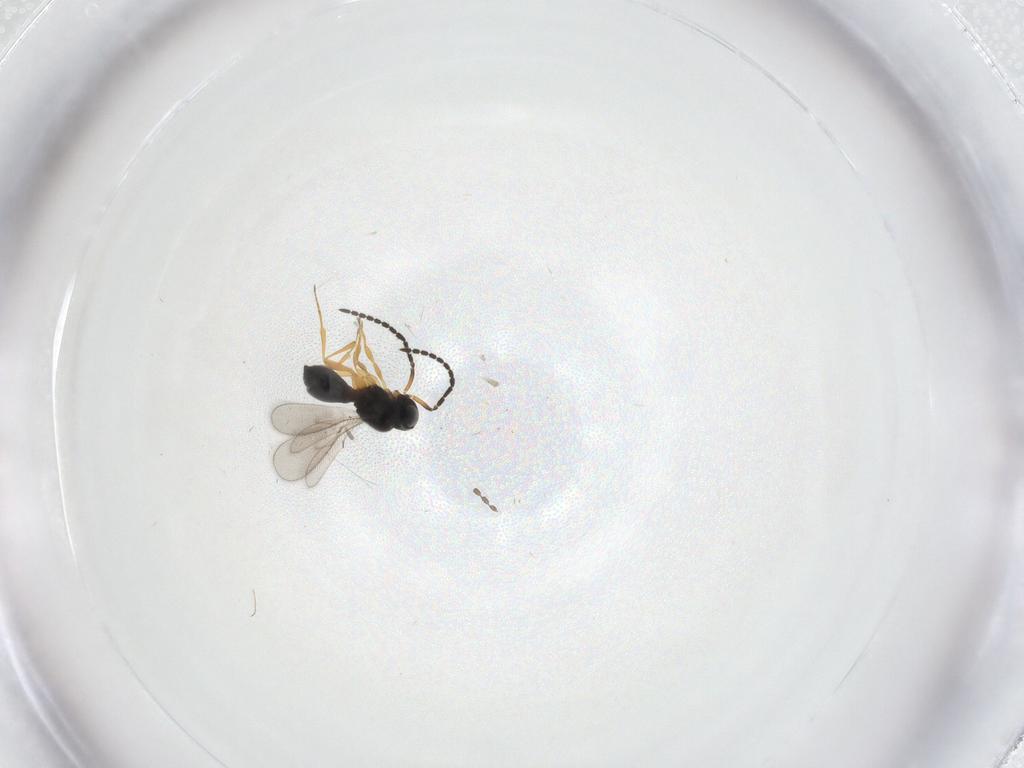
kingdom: Animalia
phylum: Arthropoda
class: Insecta
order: Hymenoptera
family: Scelionidae
